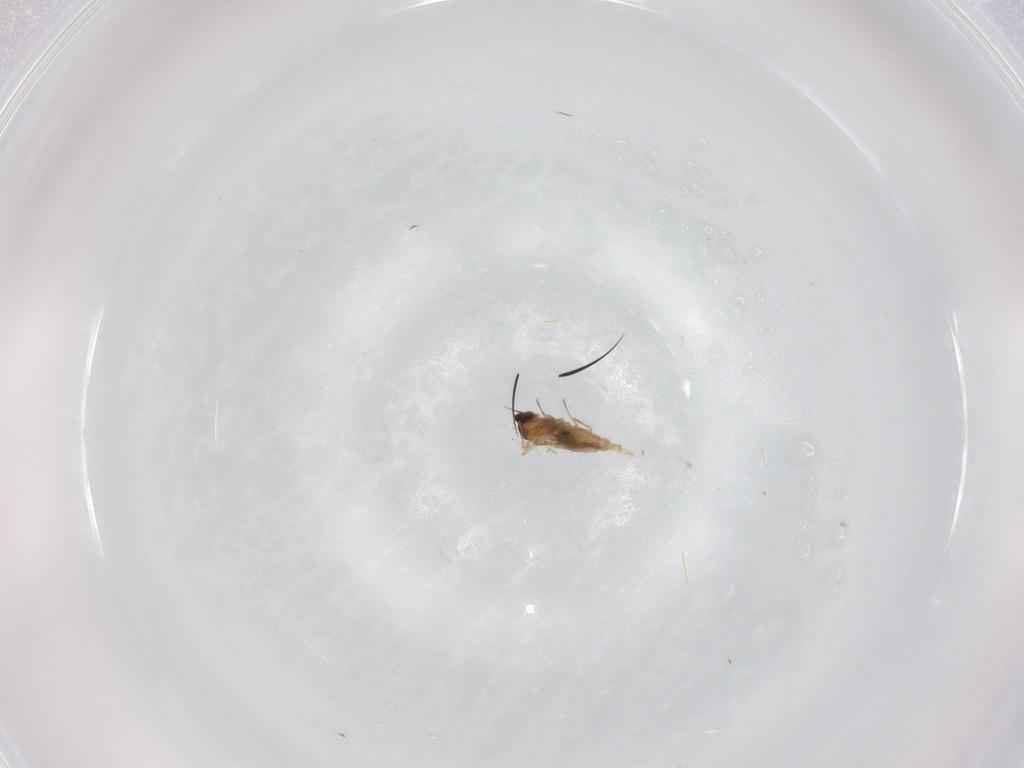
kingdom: Animalia
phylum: Arthropoda
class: Insecta
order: Diptera
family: Cecidomyiidae
